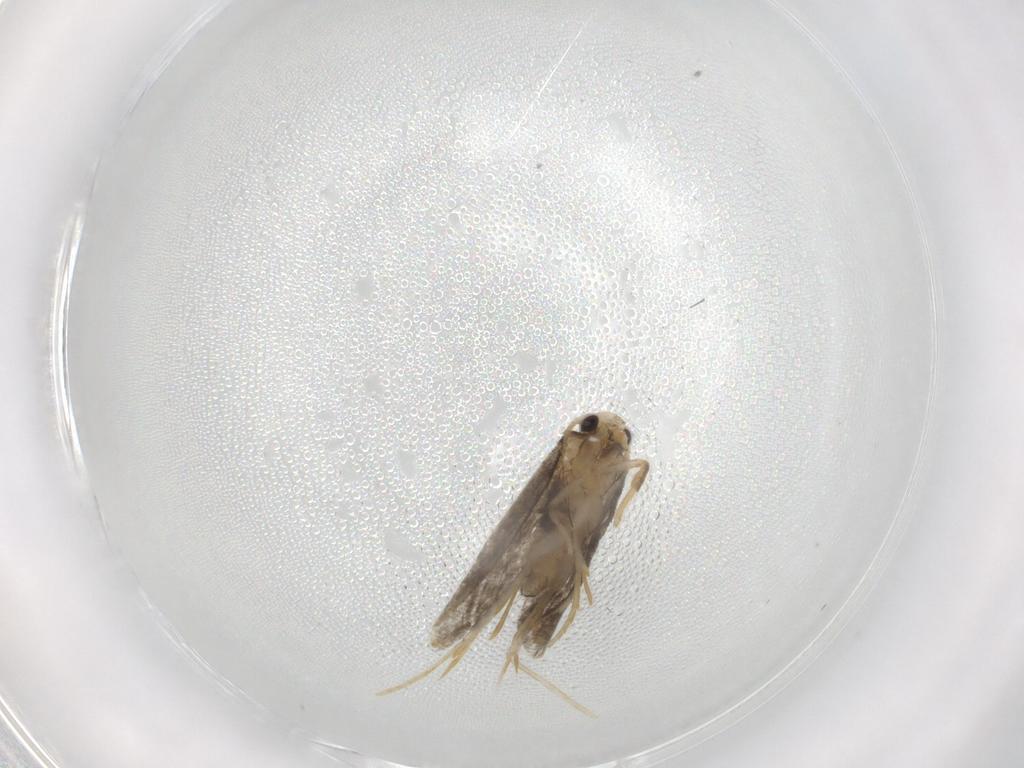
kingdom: Animalia
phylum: Arthropoda
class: Insecta
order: Lepidoptera
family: Psychidae
